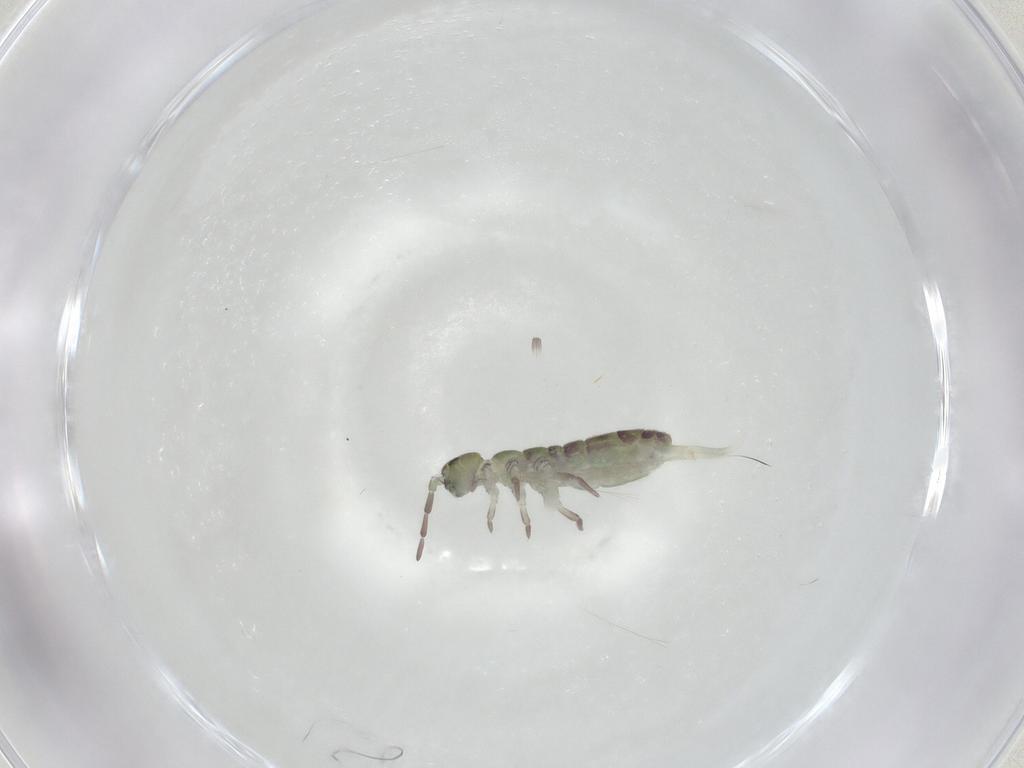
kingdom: Animalia
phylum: Arthropoda
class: Collembola
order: Entomobryomorpha
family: Isotomidae
